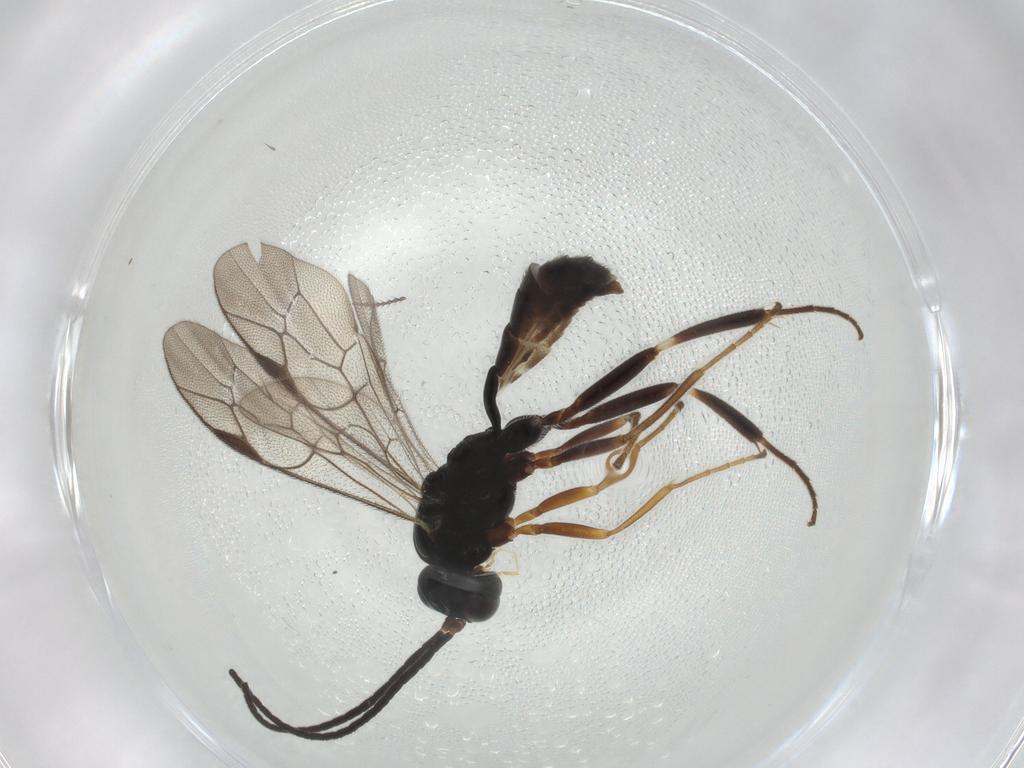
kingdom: Animalia
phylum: Arthropoda
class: Insecta
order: Hymenoptera
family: Ichneumonidae
